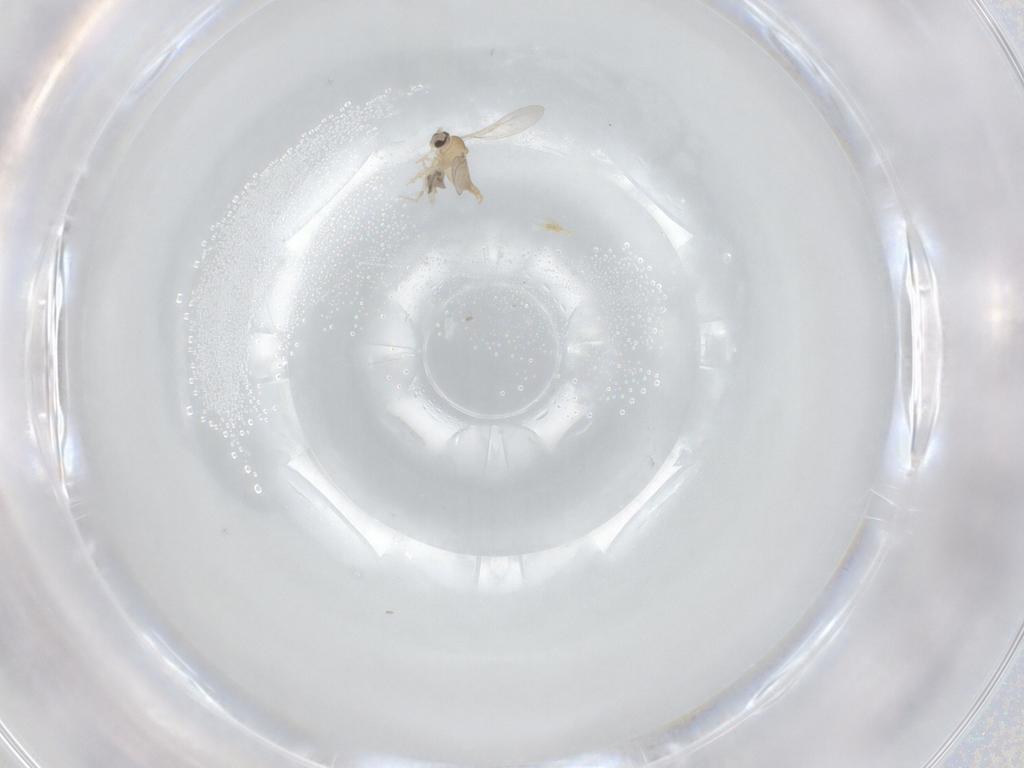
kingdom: Animalia
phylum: Arthropoda
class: Insecta
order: Diptera
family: Cecidomyiidae
